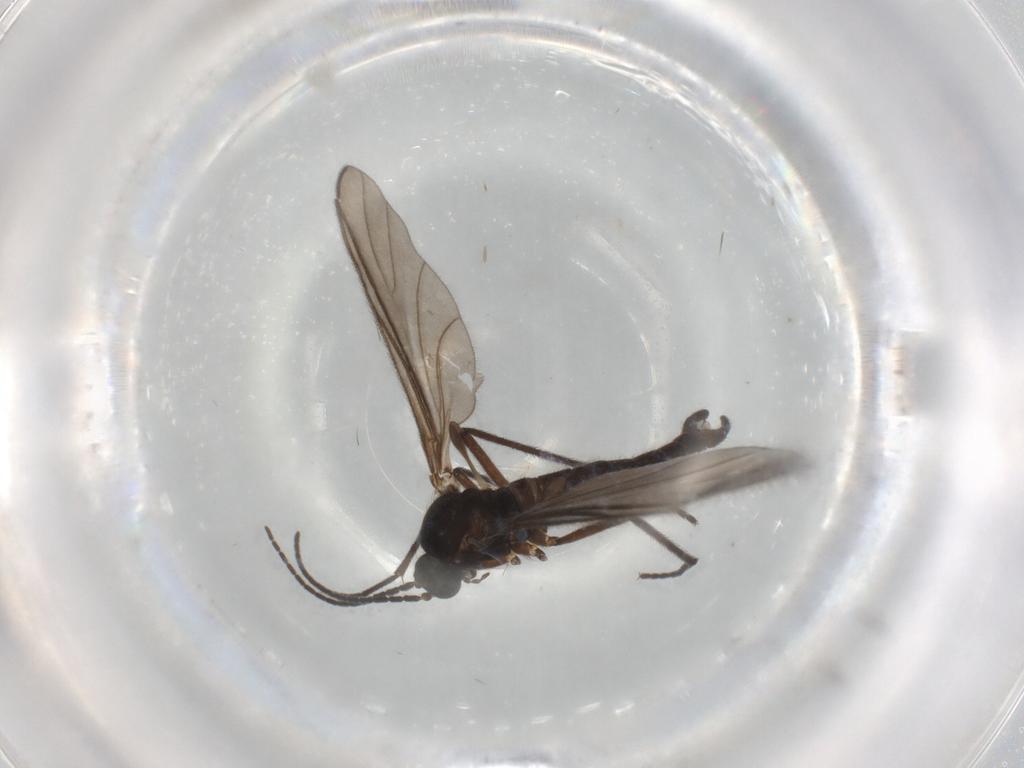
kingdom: Animalia
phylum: Arthropoda
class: Insecta
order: Diptera
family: Sciaridae
